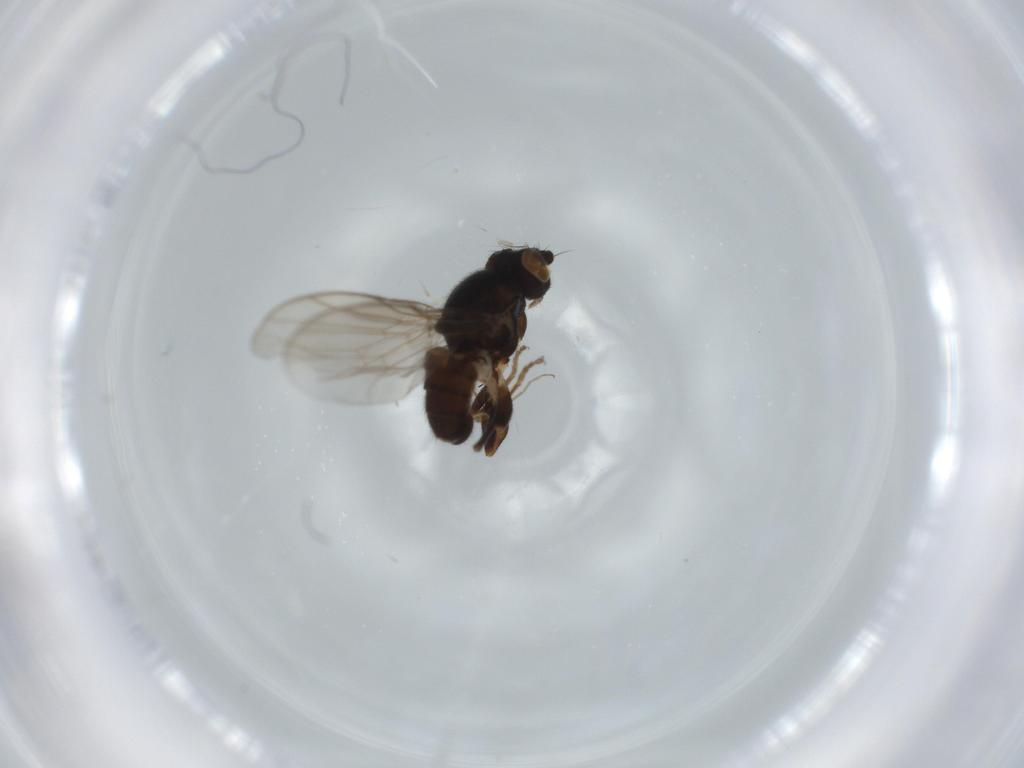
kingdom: Animalia
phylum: Arthropoda
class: Insecta
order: Diptera
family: Chloropidae
